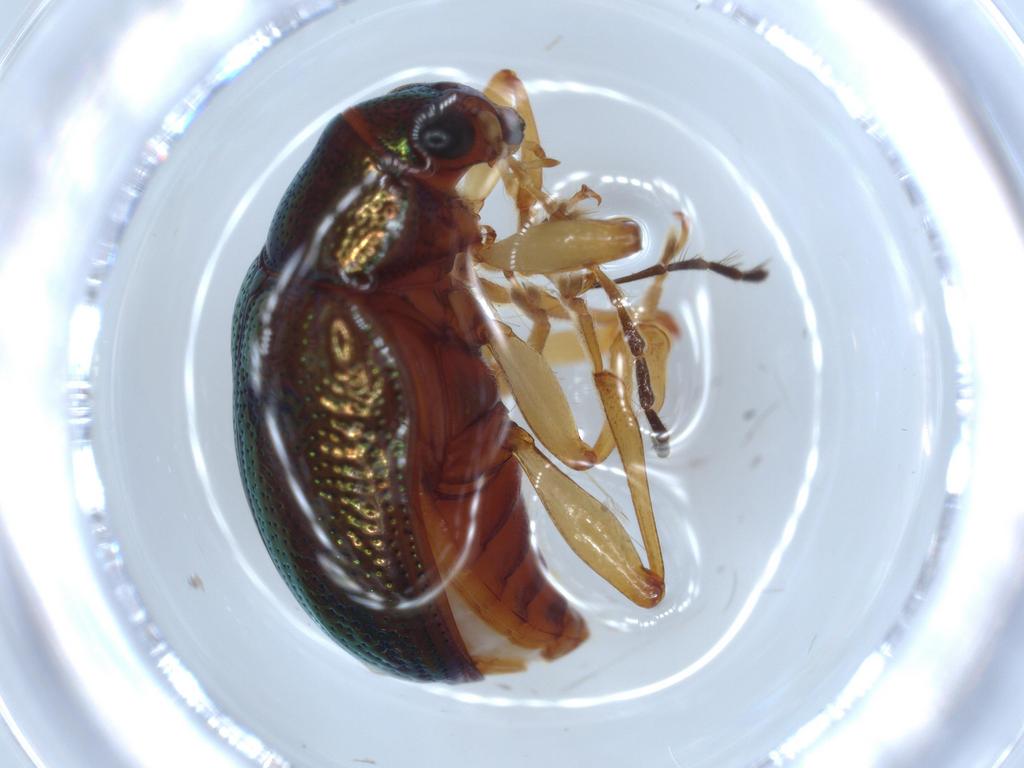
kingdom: Animalia
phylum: Arthropoda
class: Insecta
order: Coleoptera
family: Chrysomelidae
